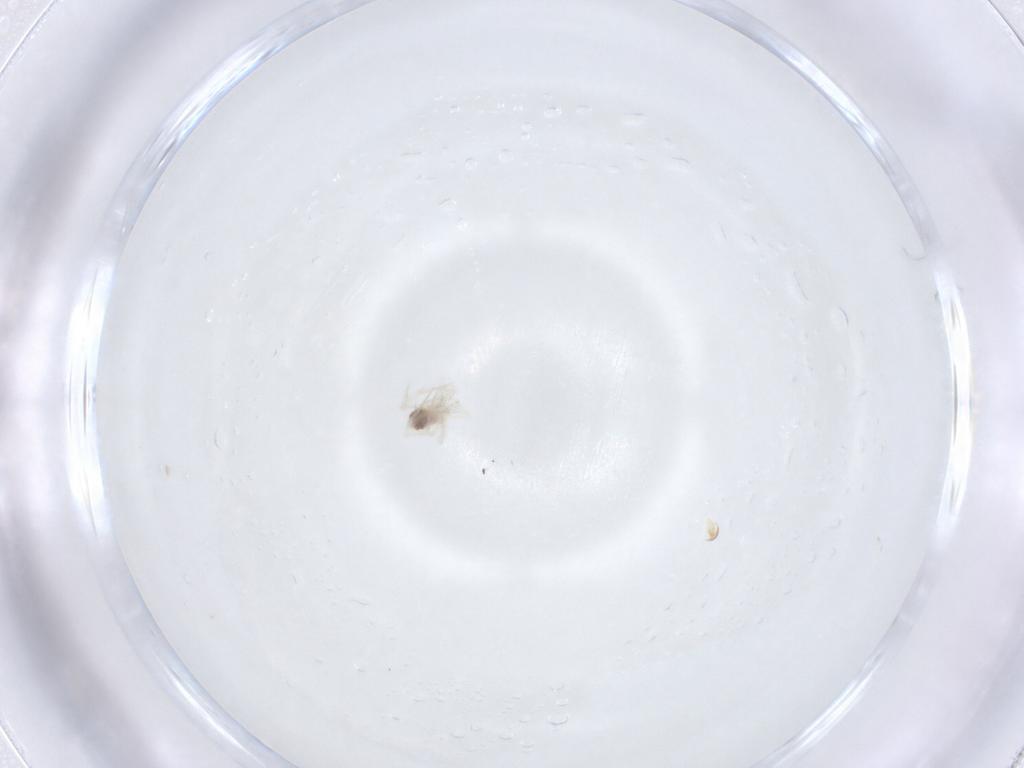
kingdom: Animalia
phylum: Arthropoda
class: Arachnida
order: Trombidiformes
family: Anystidae
